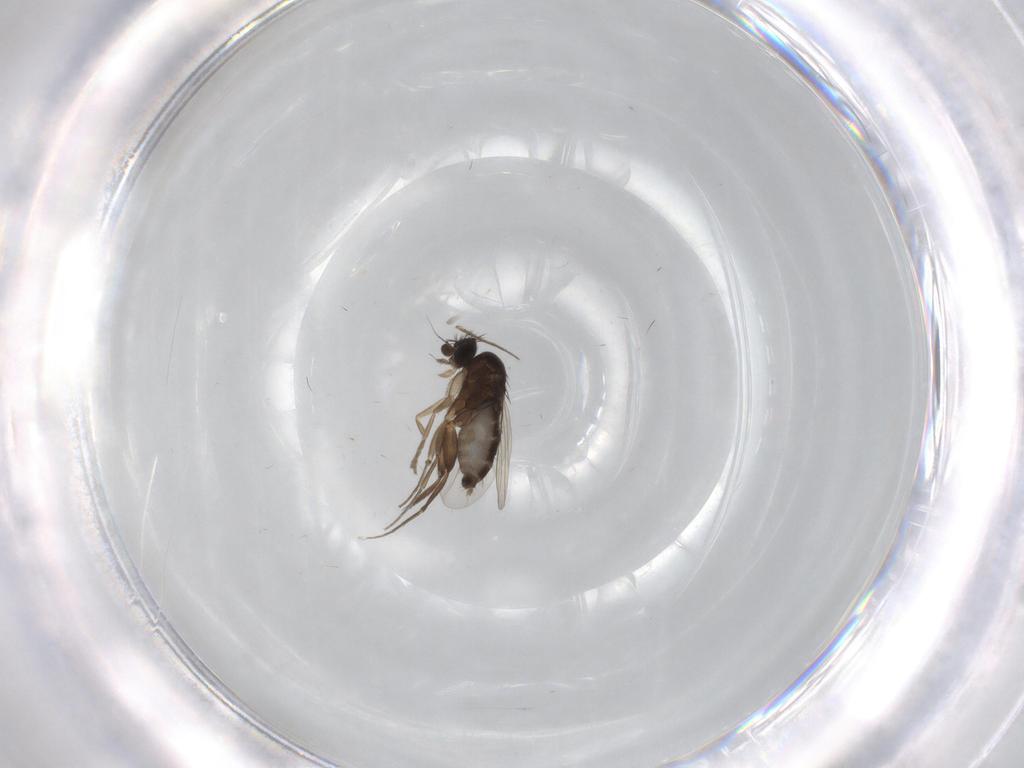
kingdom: Animalia
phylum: Arthropoda
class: Insecta
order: Diptera
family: Phoridae
